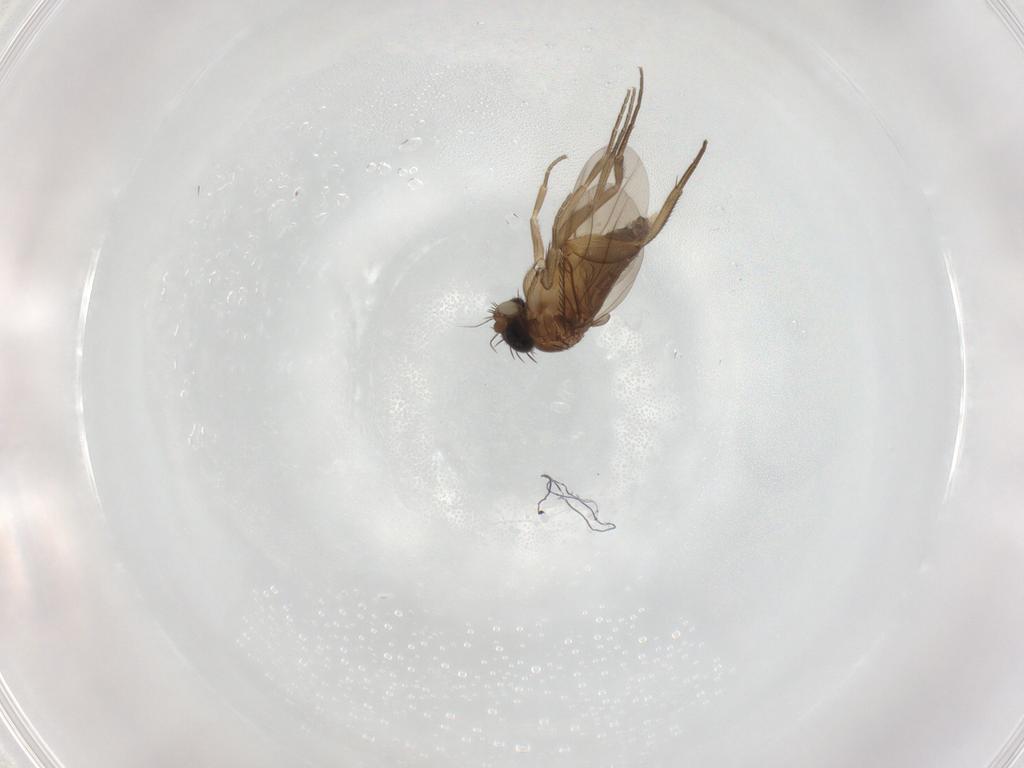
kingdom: Animalia
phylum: Arthropoda
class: Insecta
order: Diptera
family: Phoridae
